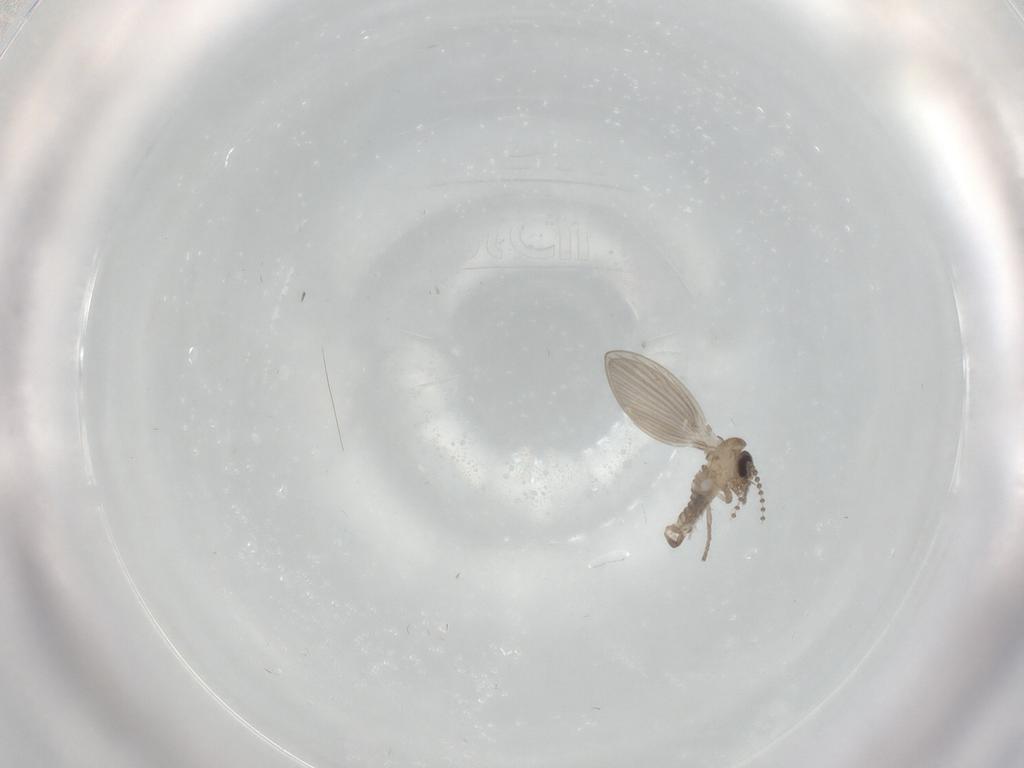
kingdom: Animalia
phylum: Arthropoda
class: Insecta
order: Diptera
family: Psychodidae
